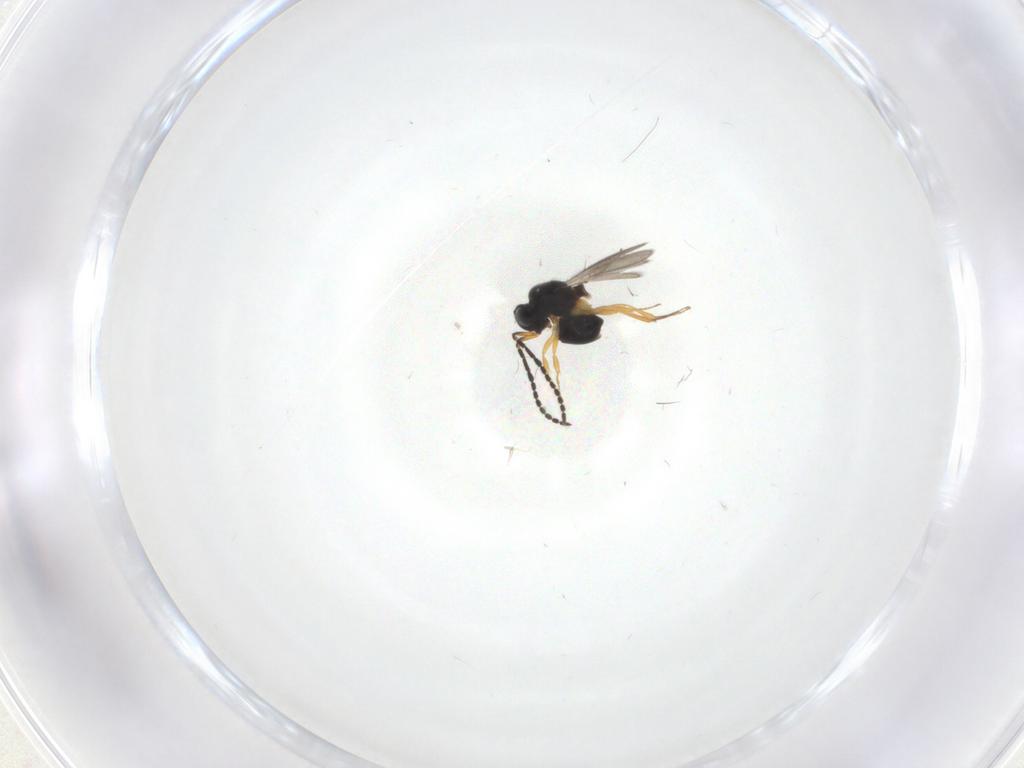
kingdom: Animalia
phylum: Arthropoda
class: Insecta
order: Hymenoptera
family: Scelionidae
